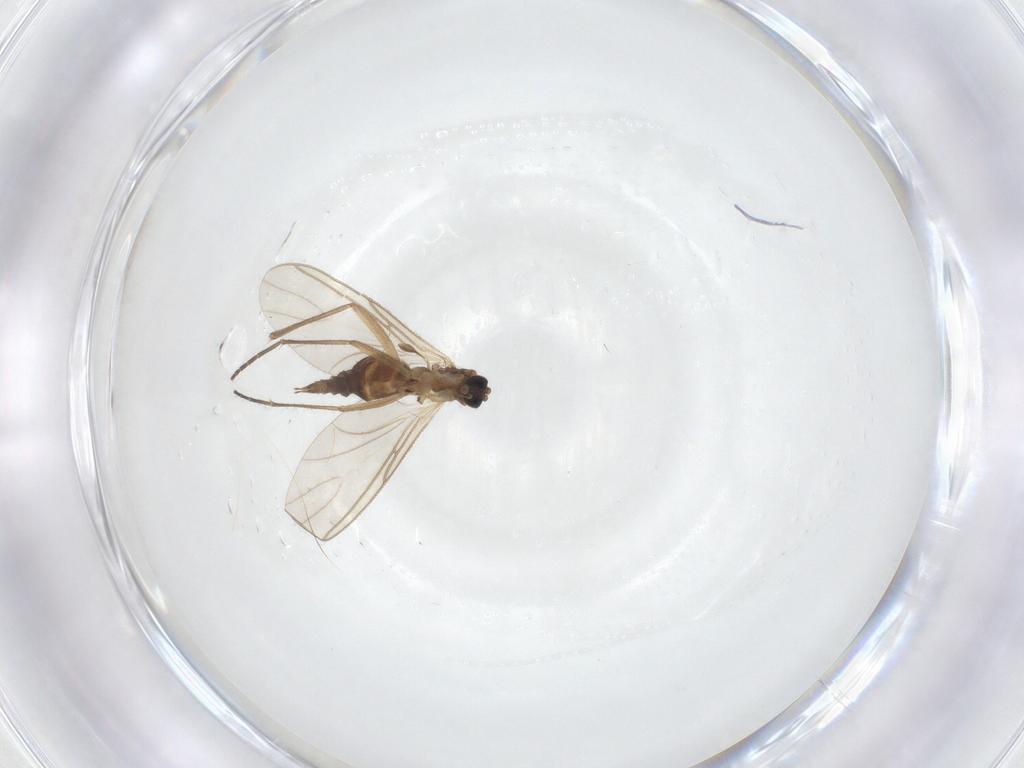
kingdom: Animalia
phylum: Arthropoda
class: Insecta
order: Diptera
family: Sciaridae
